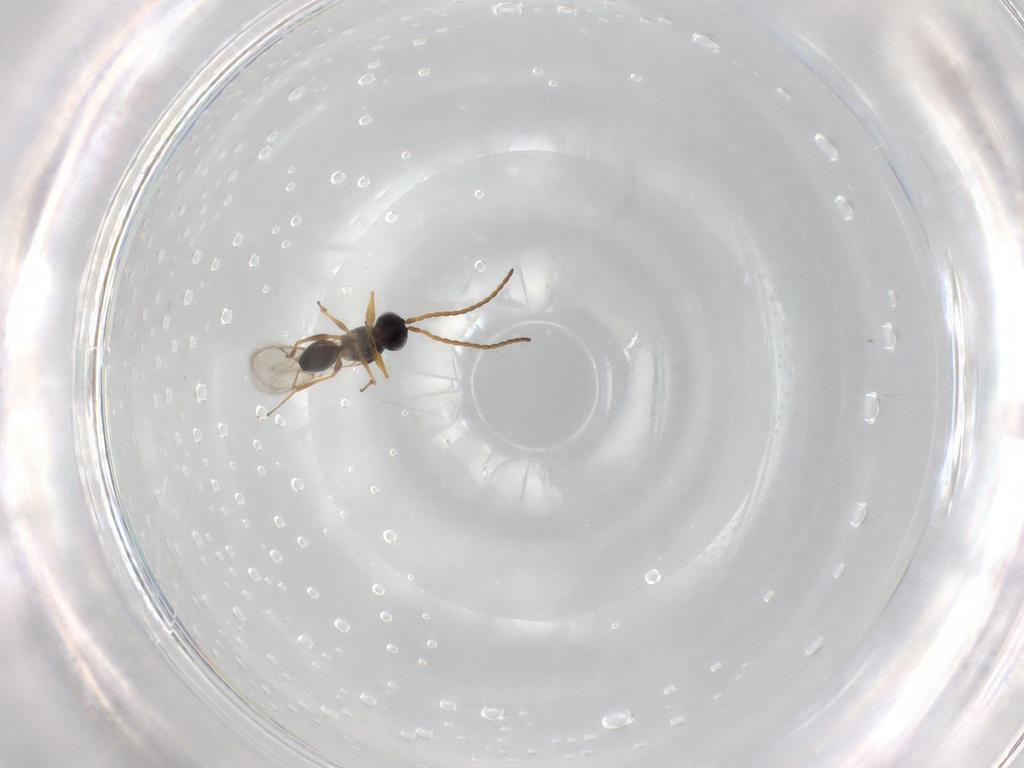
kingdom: Animalia
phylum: Arthropoda
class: Insecta
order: Hymenoptera
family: Figitidae
